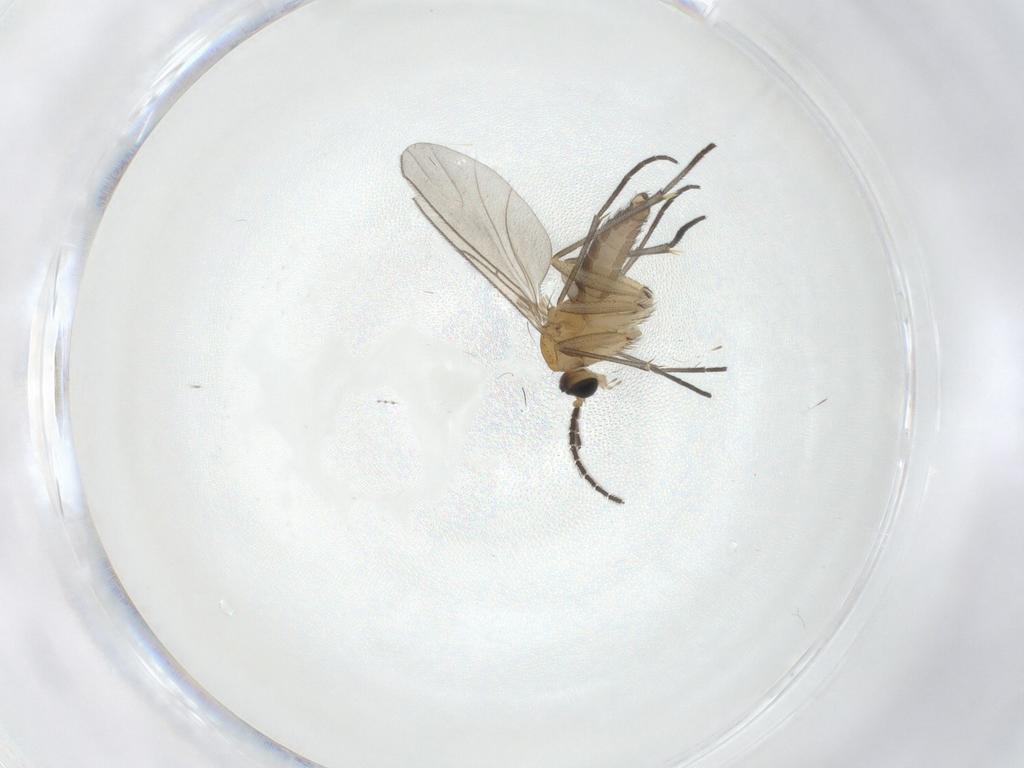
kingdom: Animalia
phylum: Arthropoda
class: Insecta
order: Diptera
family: Sciaridae
